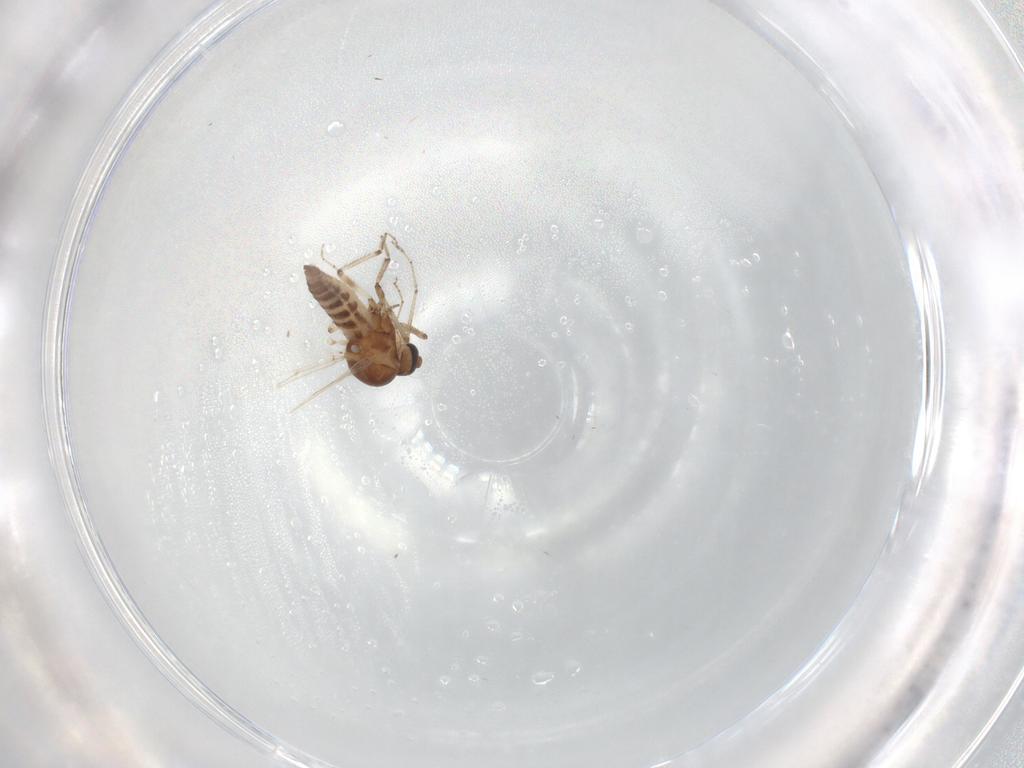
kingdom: Animalia
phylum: Arthropoda
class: Insecta
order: Diptera
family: Ceratopogonidae
